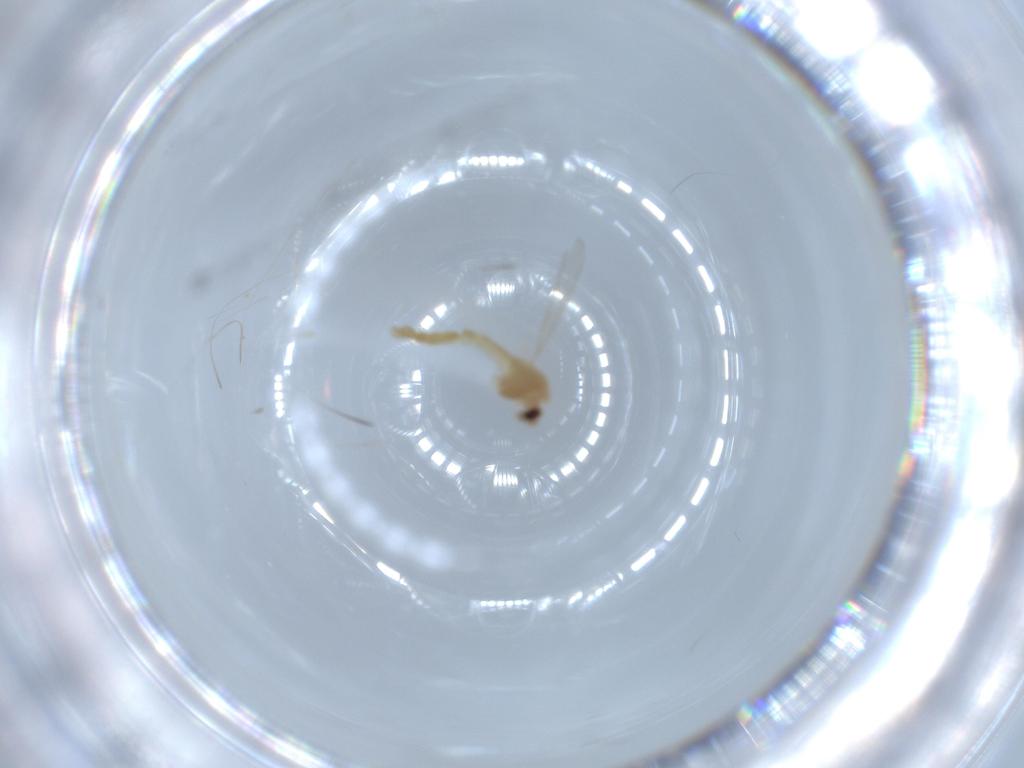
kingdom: Animalia
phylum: Arthropoda
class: Insecta
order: Diptera
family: Chironomidae
